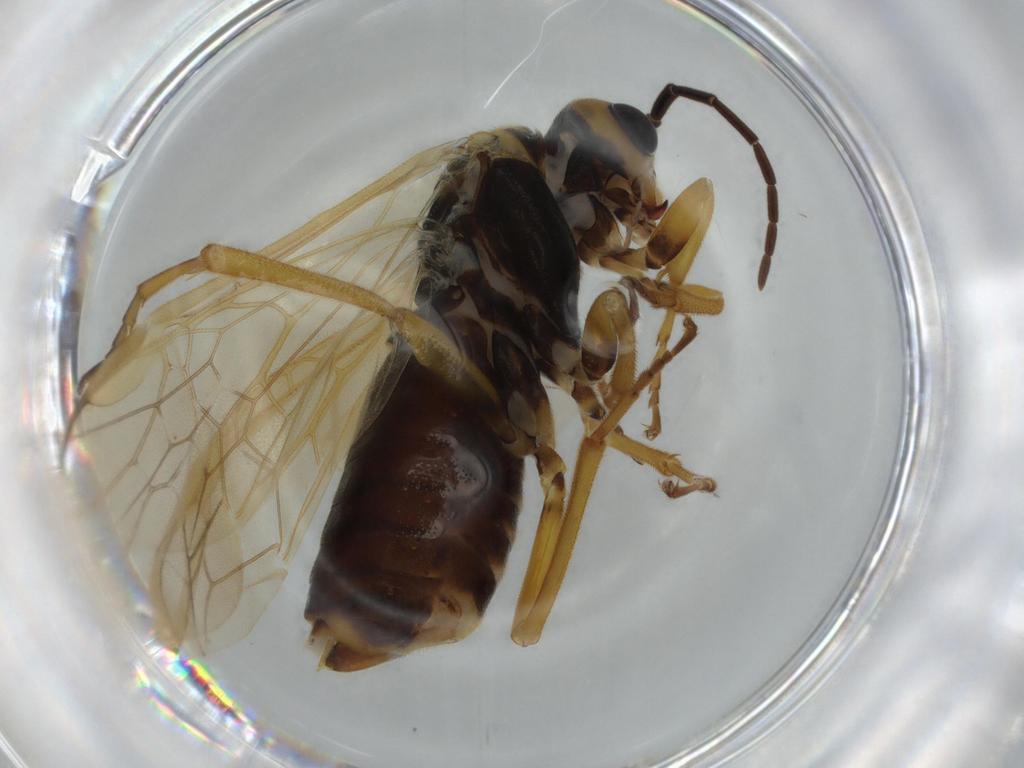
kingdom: Animalia
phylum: Arthropoda
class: Insecta
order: Hymenoptera
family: Tenthredinidae
